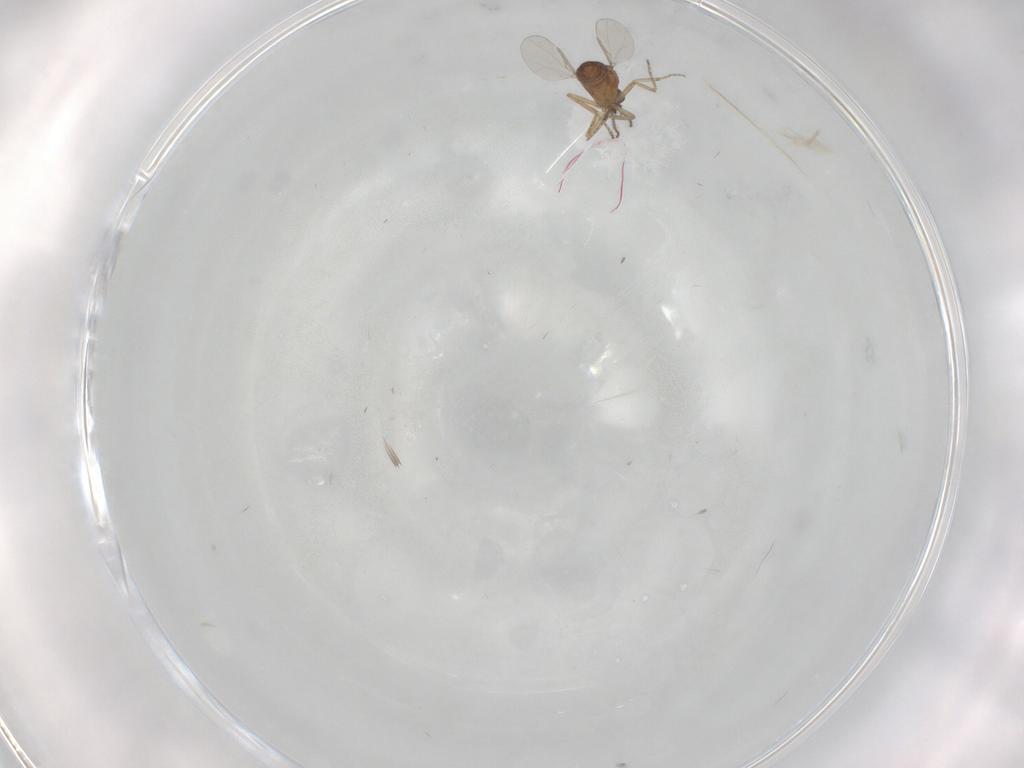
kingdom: Animalia
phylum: Arthropoda
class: Insecta
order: Diptera
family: Ceratopogonidae
